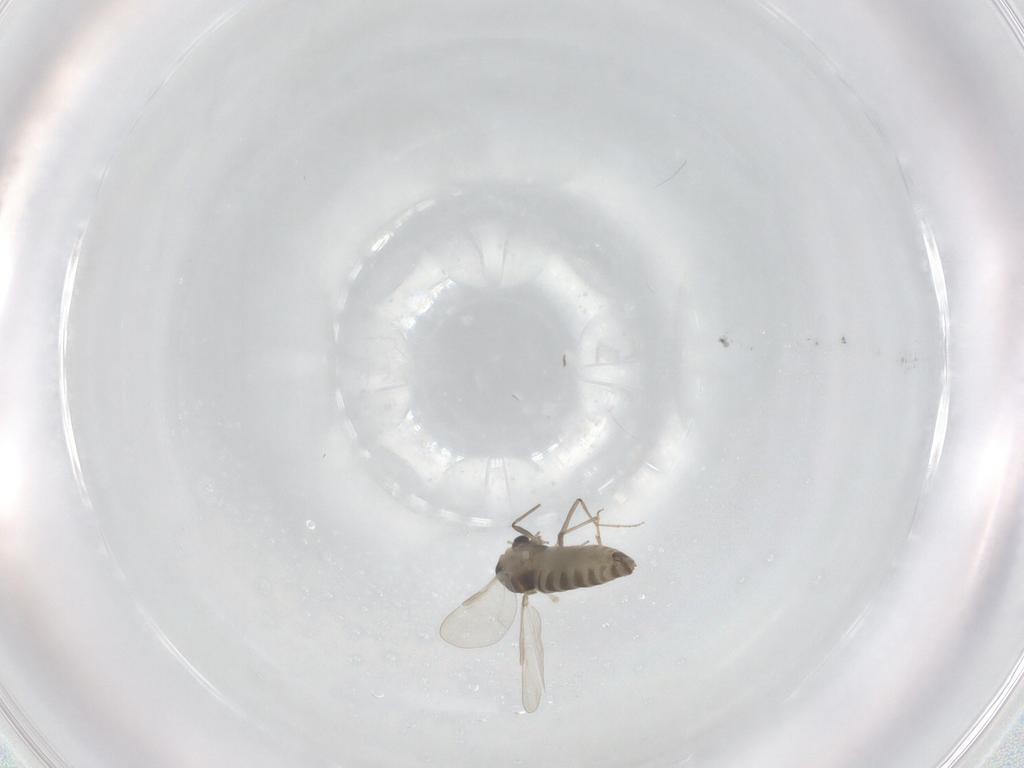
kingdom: Animalia
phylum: Arthropoda
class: Insecta
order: Diptera
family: Chironomidae
